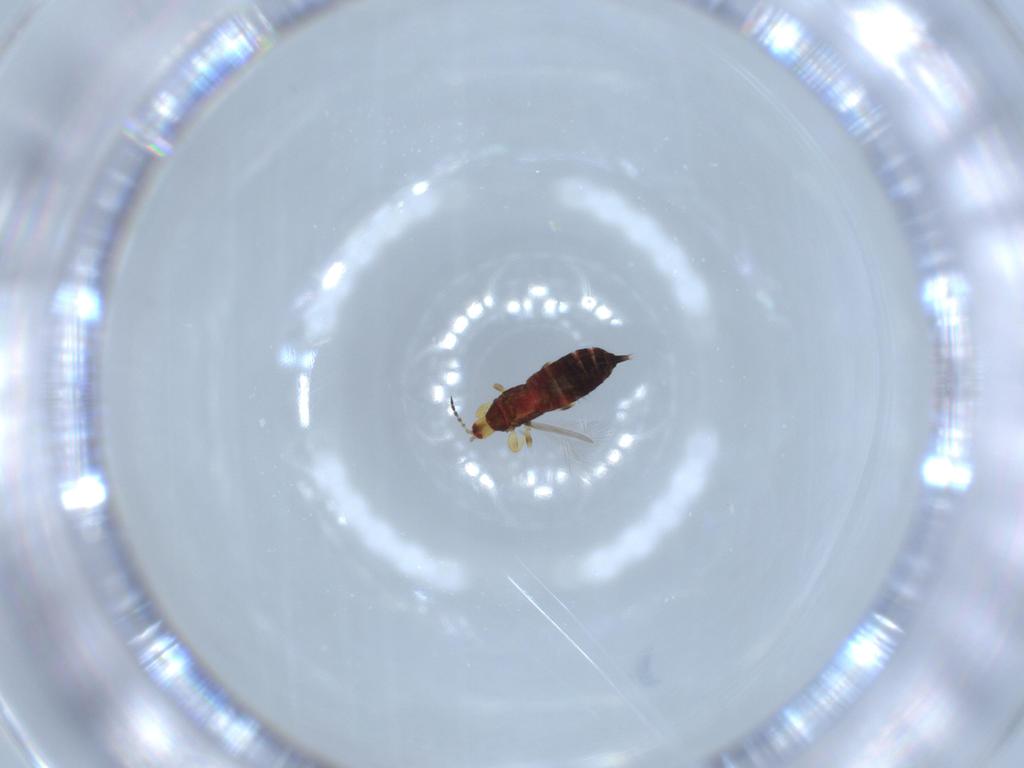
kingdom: Animalia
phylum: Arthropoda
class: Insecta
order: Thysanoptera
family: Phlaeothripidae
